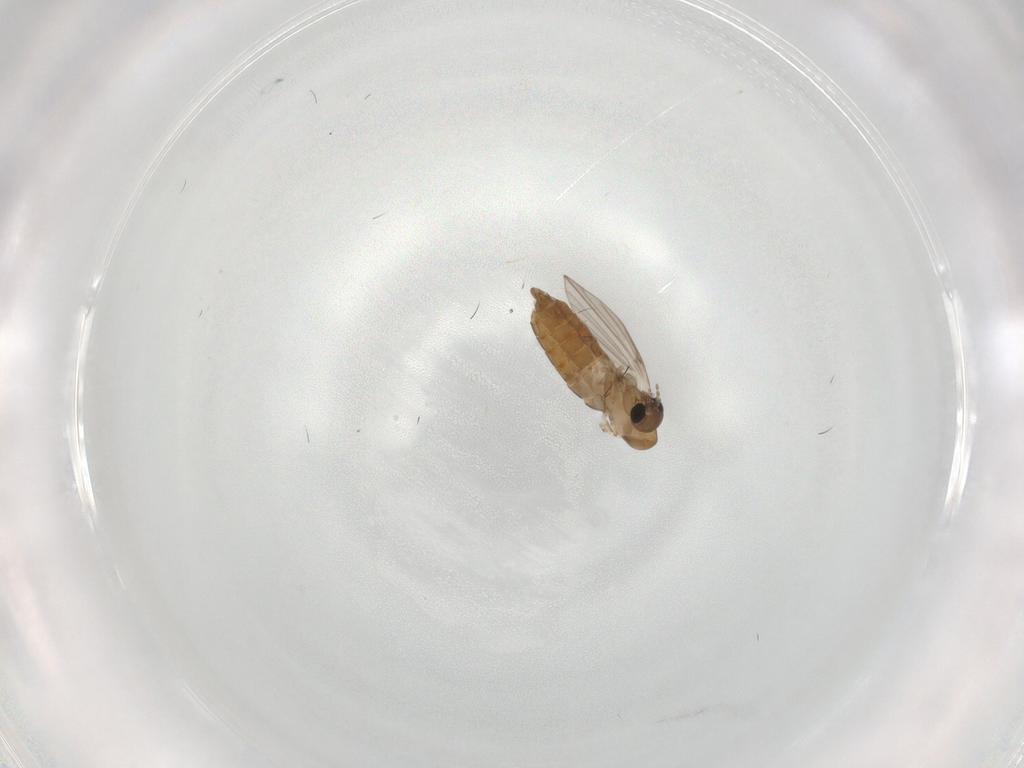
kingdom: Animalia
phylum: Arthropoda
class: Insecta
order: Diptera
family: Psychodidae
